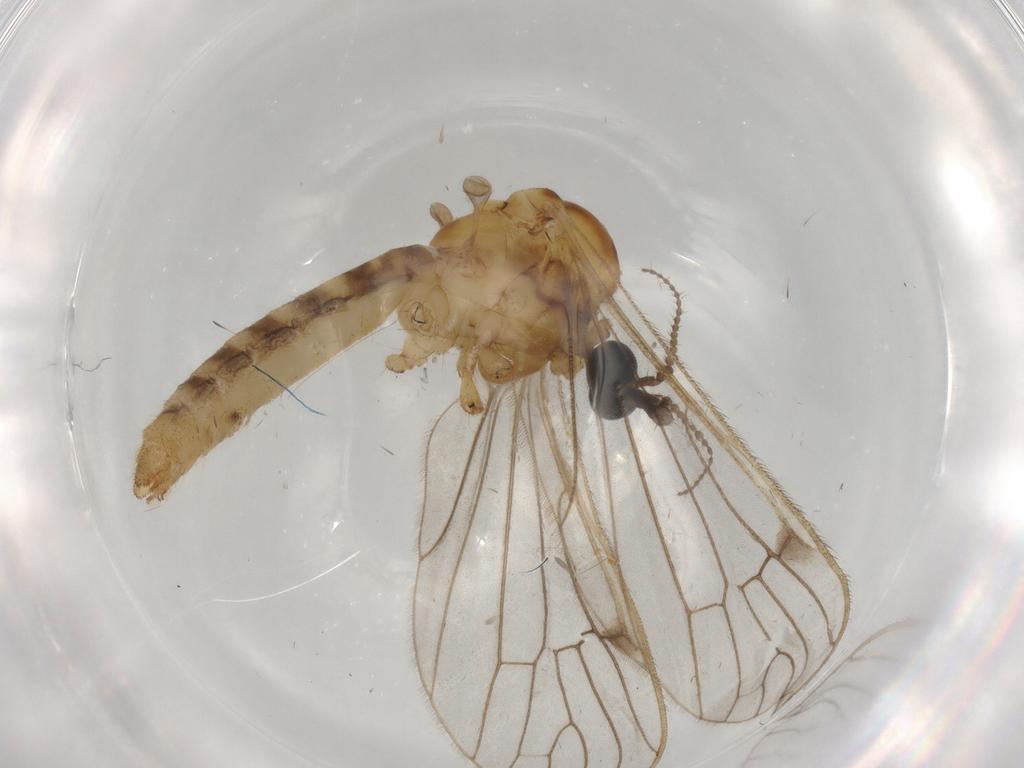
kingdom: Animalia
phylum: Arthropoda
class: Insecta
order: Diptera
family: Limoniidae
